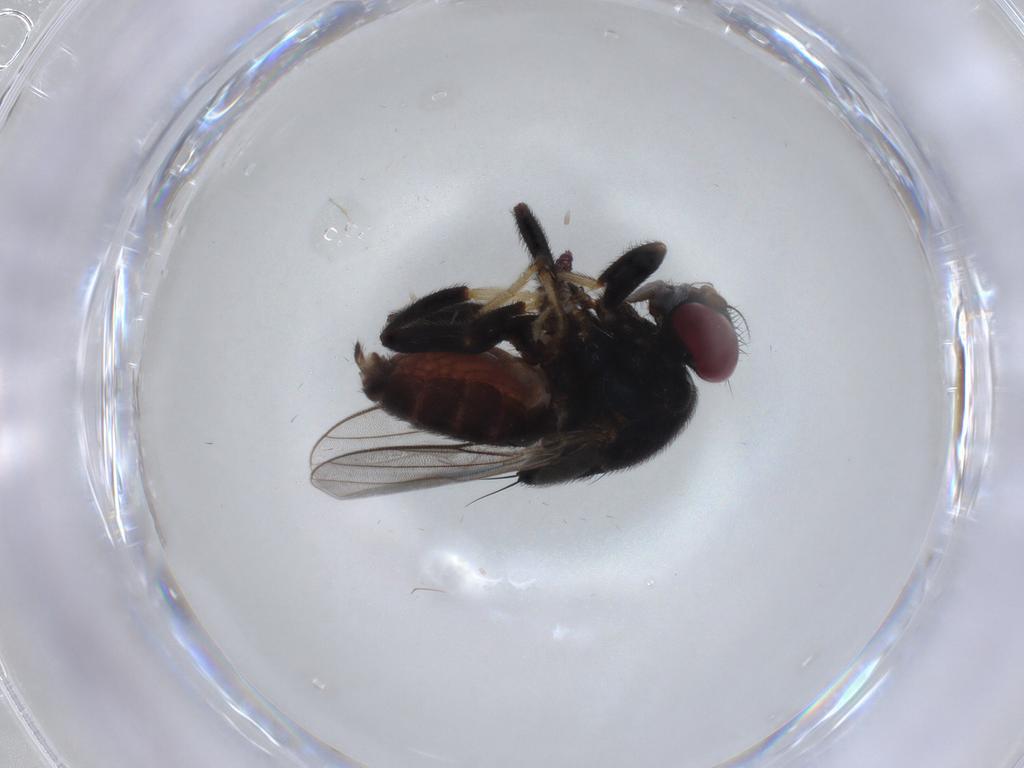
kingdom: Animalia
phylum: Arthropoda
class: Insecta
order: Diptera
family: Chloropidae
